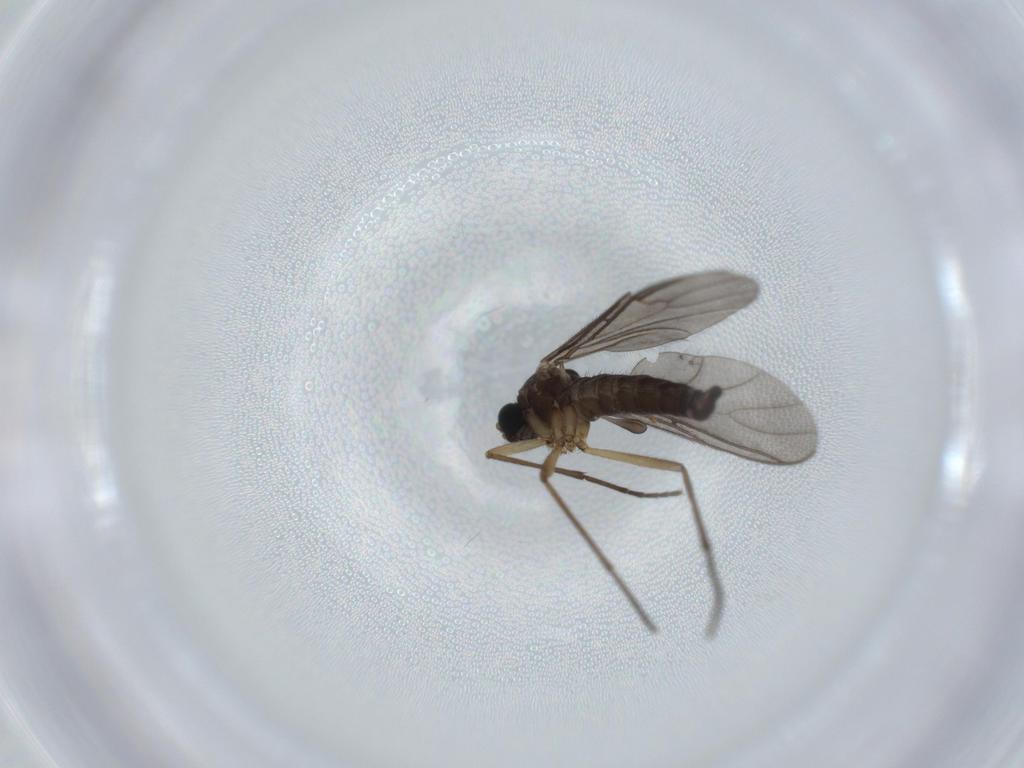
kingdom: Animalia
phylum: Arthropoda
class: Insecta
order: Diptera
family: Sciaridae
